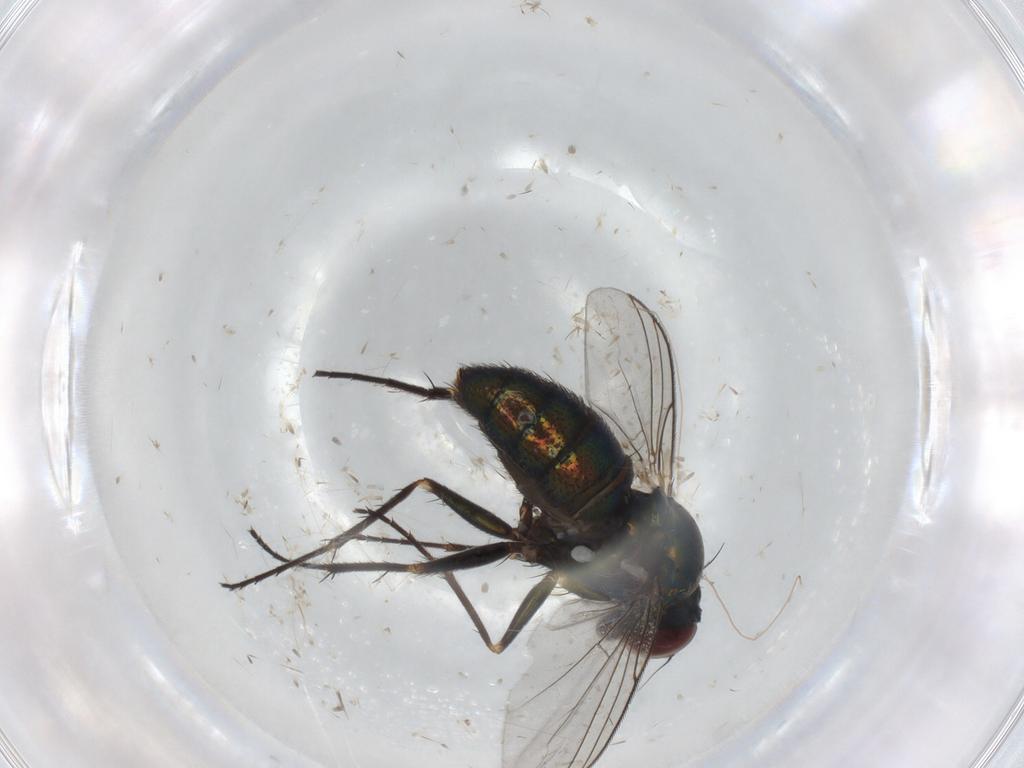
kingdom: Animalia
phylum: Arthropoda
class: Insecta
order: Diptera
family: Dolichopodidae
